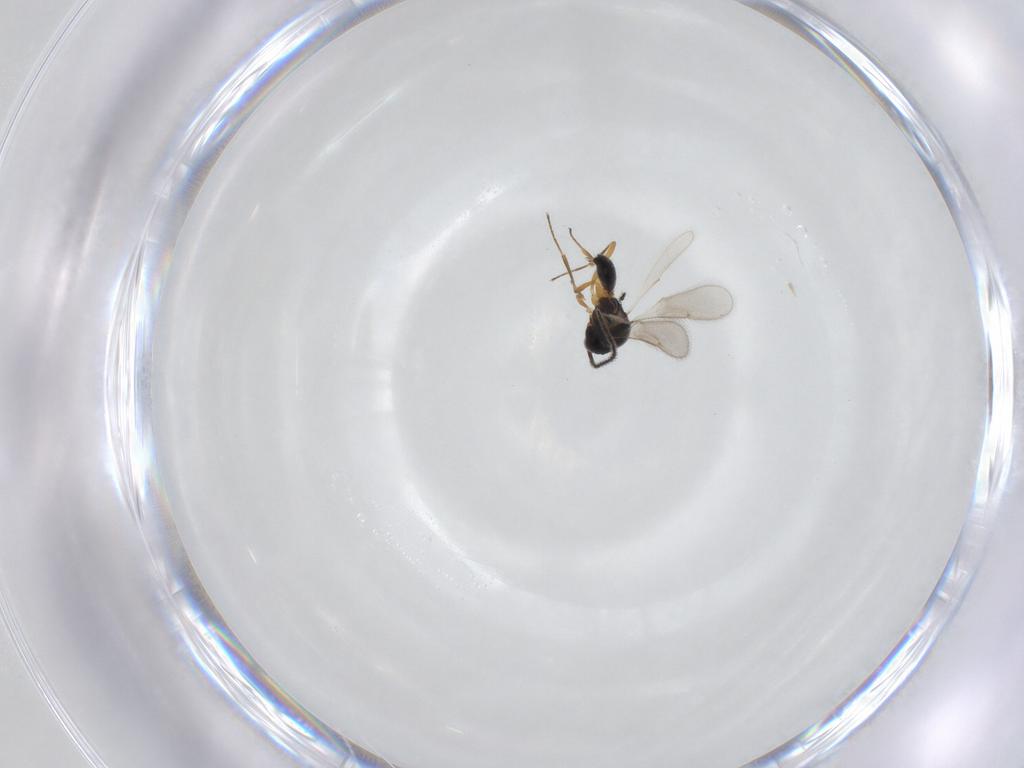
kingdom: Animalia
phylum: Arthropoda
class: Insecta
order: Hymenoptera
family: Scelionidae
